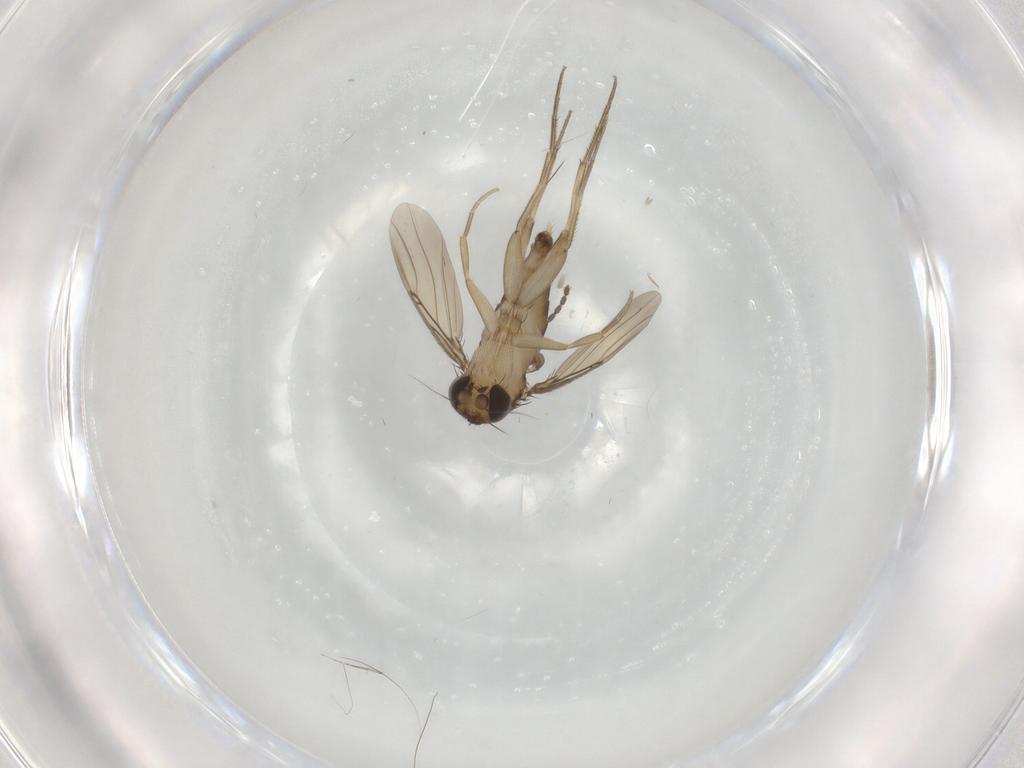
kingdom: Animalia
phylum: Arthropoda
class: Insecta
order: Diptera
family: Phoridae
